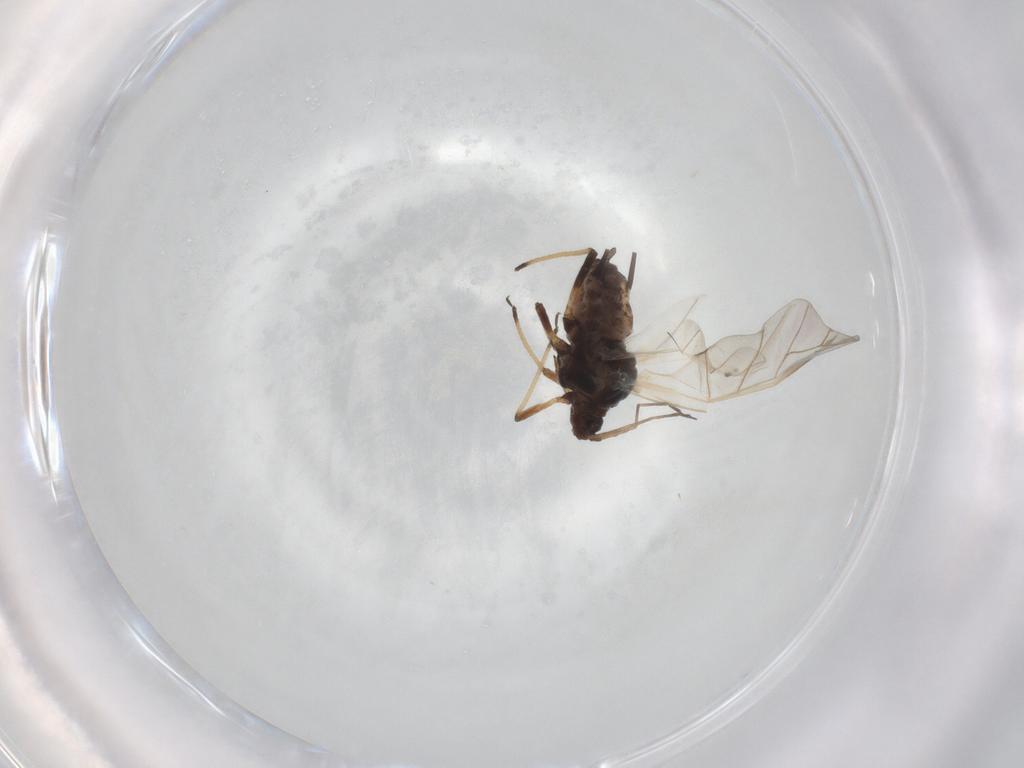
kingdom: Animalia
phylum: Arthropoda
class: Insecta
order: Hemiptera
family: Aphididae
